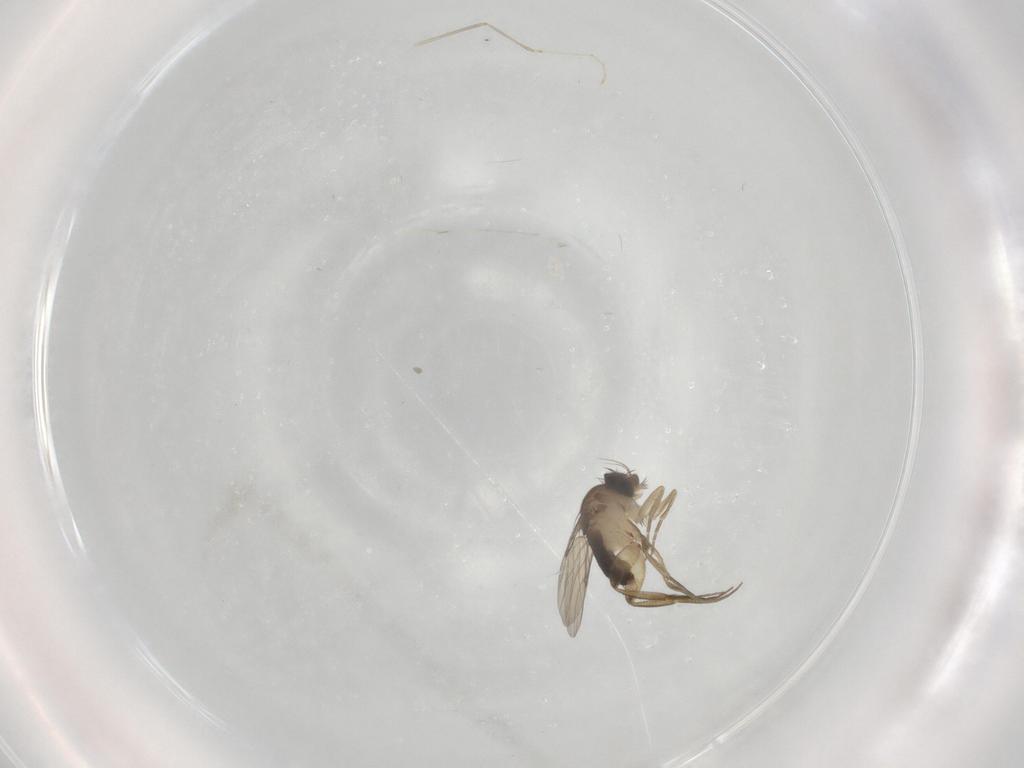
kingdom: Animalia
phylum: Arthropoda
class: Insecta
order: Diptera
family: Phoridae
